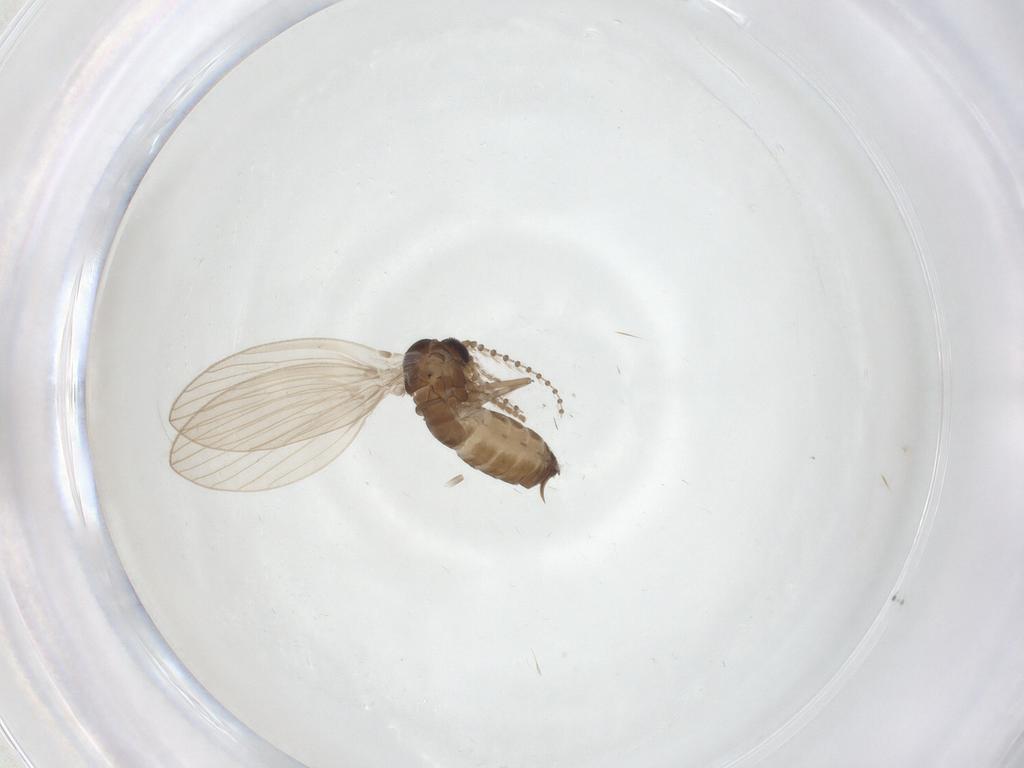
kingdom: Animalia
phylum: Arthropoda
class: Insecta
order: Diptera
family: Psychodidae
